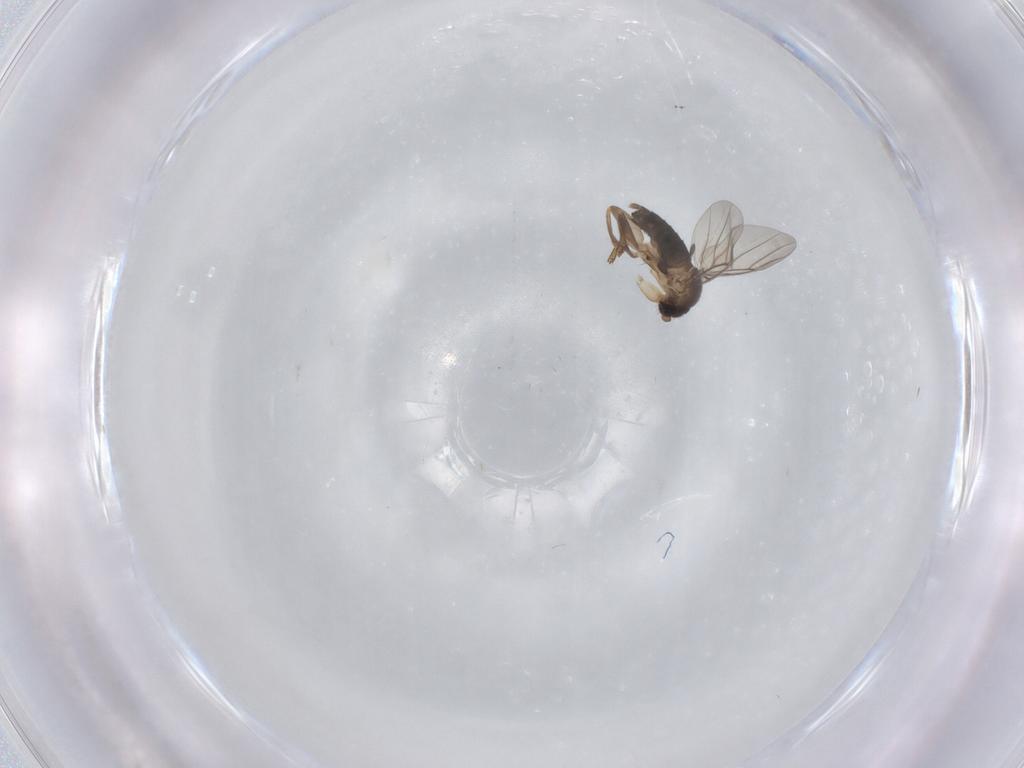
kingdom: Animalia
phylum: Arthropoda
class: Insecta
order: Diptera
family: Phoridae
